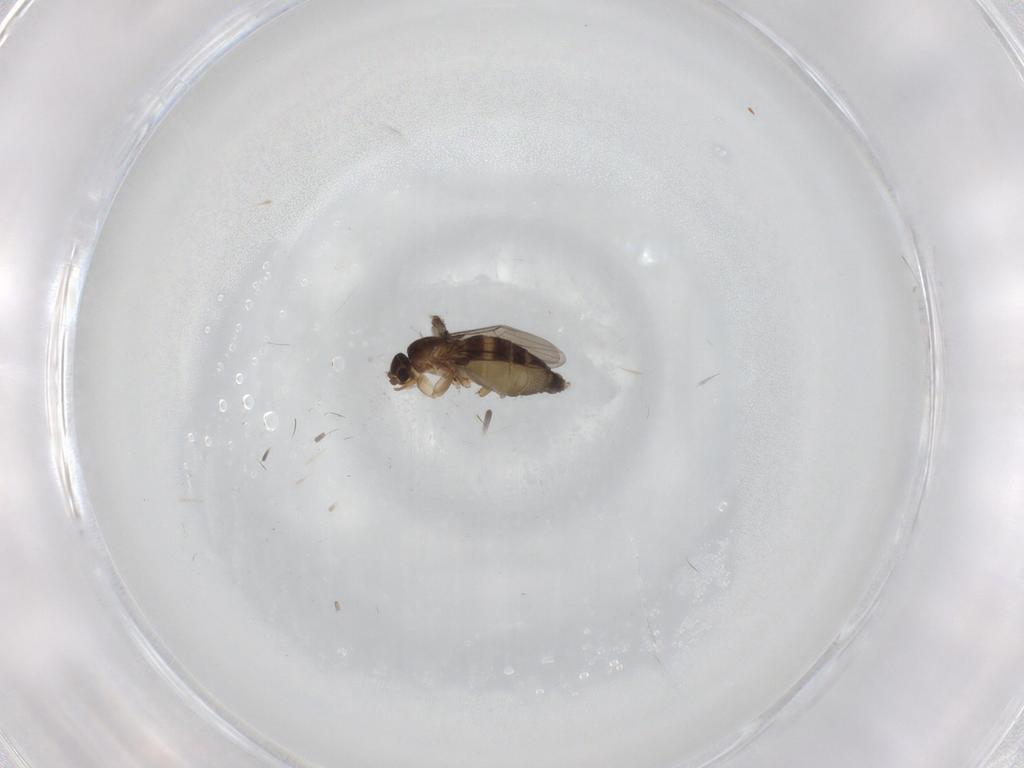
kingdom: Animalia
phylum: Arthropoda
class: Insecta
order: Diptera
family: Phoridae
